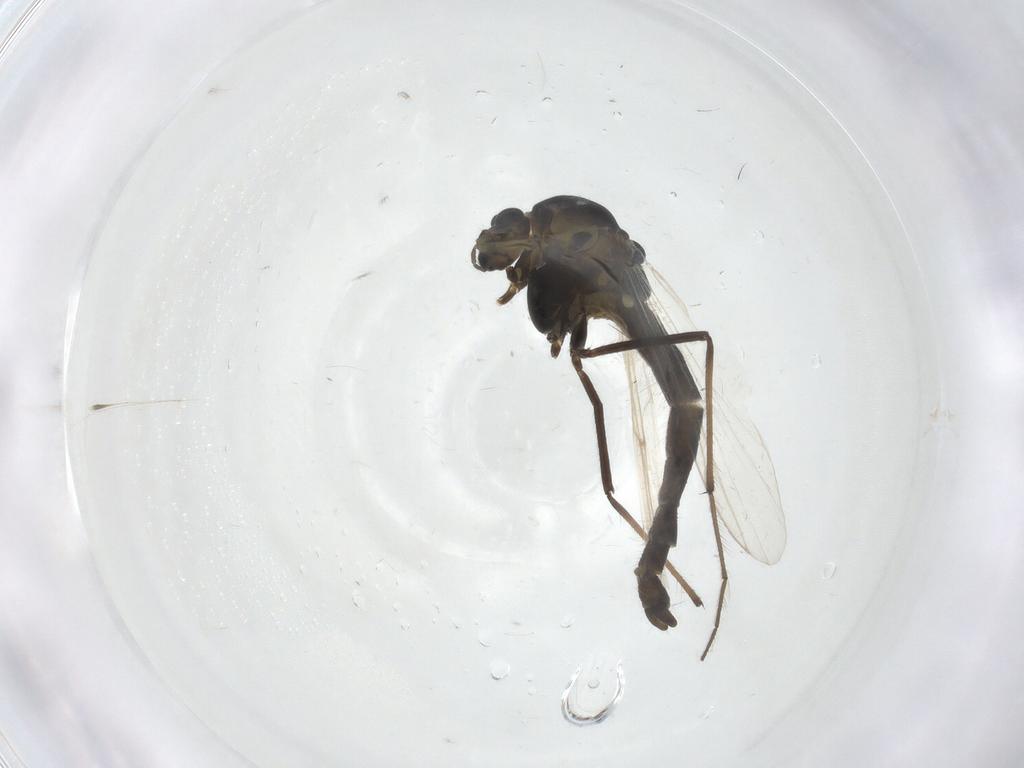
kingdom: Animalia
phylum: Arthropoda
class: Insecta
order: Diptera
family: Chironomidae
